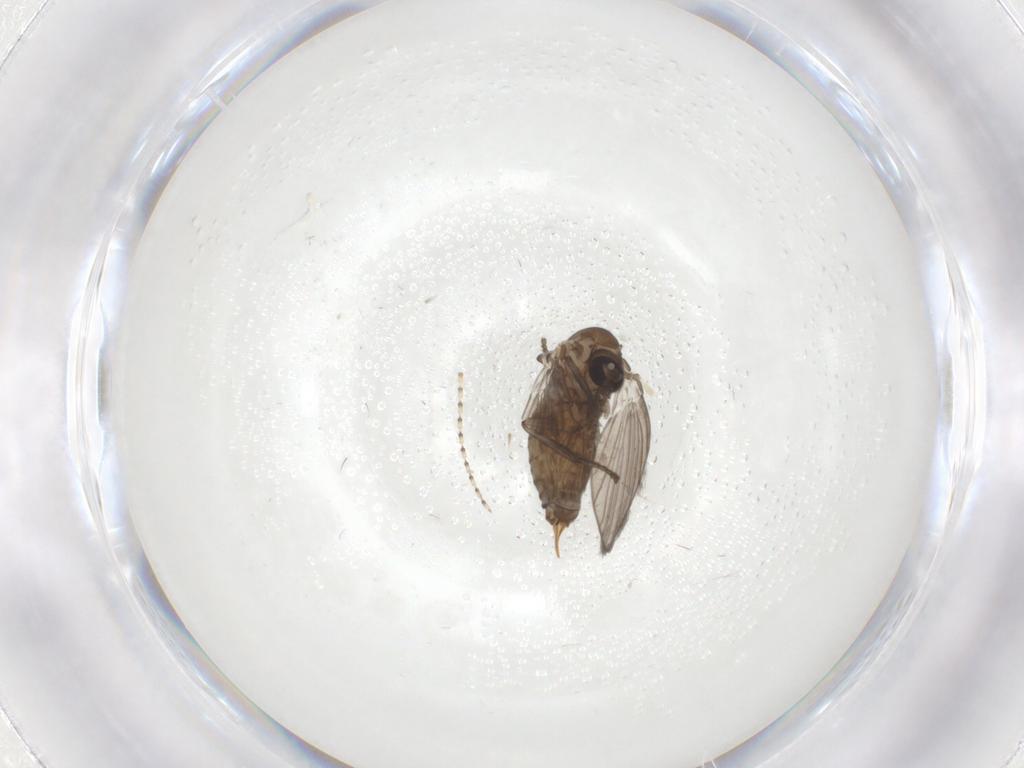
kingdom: Animalia
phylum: Arthropoda
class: Insecta
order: Diptera
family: Psychodidae
